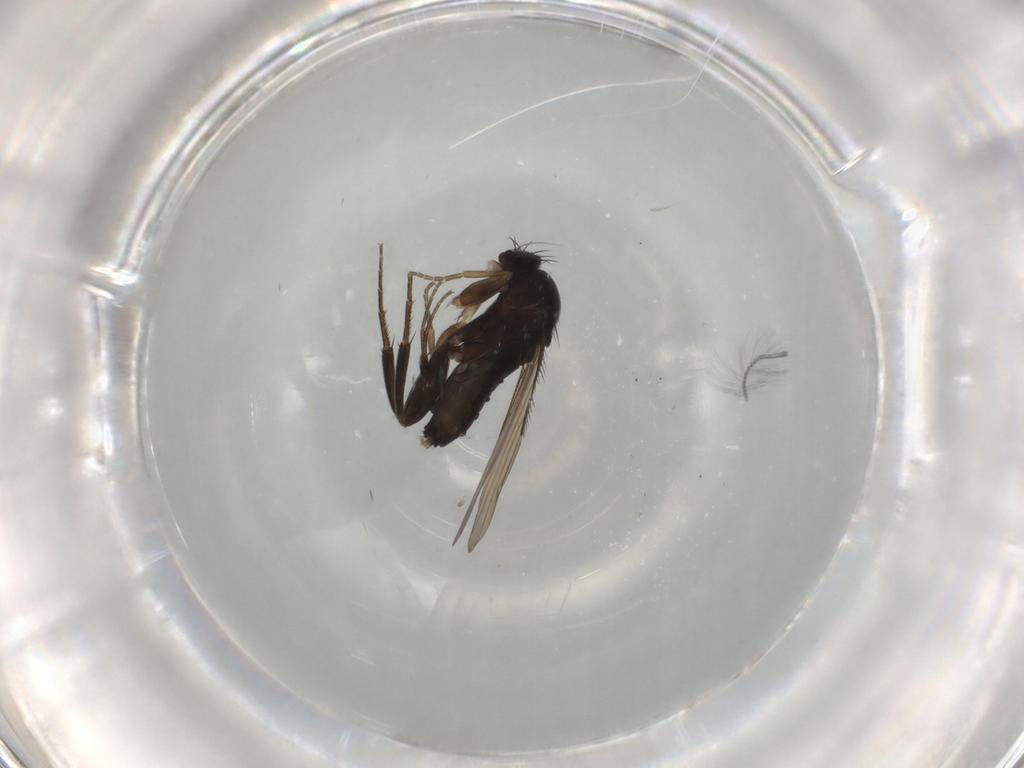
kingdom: Animalia
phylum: Arthropoda
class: Insecta
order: Diptera
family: Phoridae
